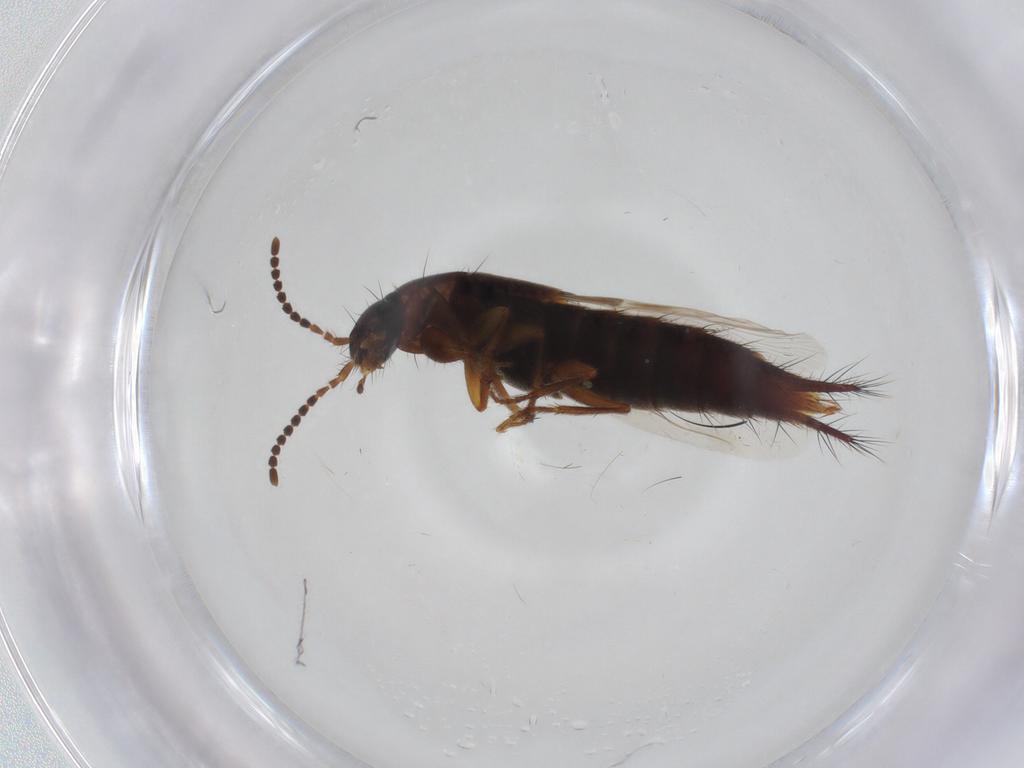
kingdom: Animalia
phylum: Arthropoda
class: Insecta
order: Coleoptera
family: Staphylinidae
